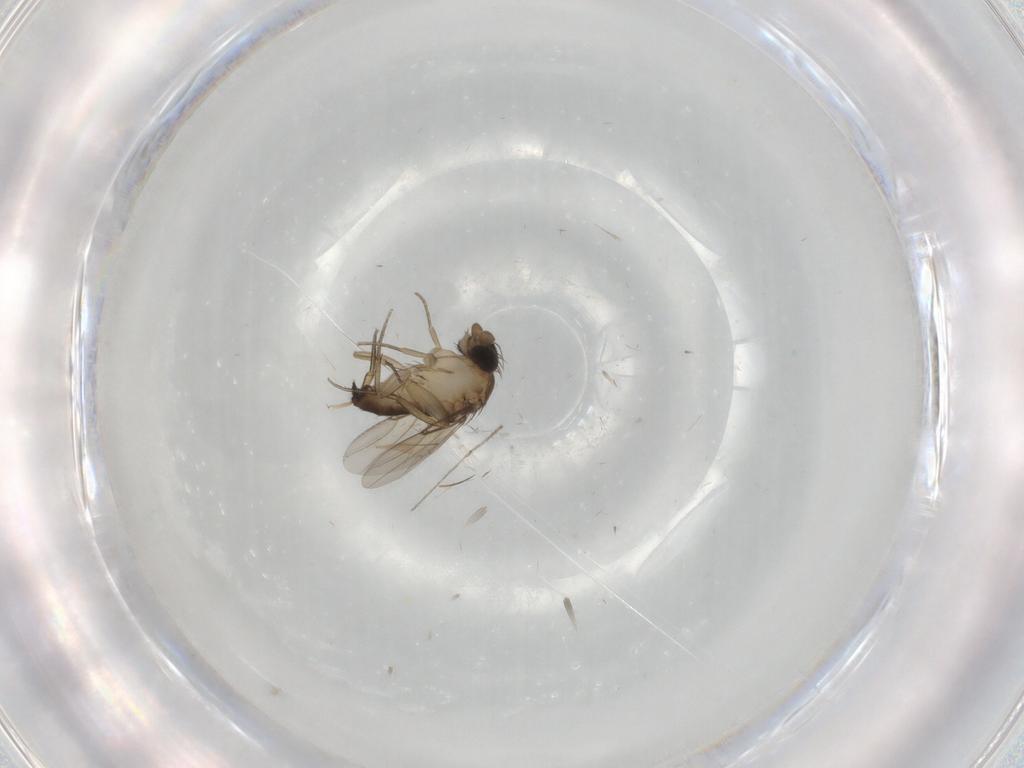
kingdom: Animalia
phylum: Arthropoda
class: Insecta
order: Diptera
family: Phoridae
